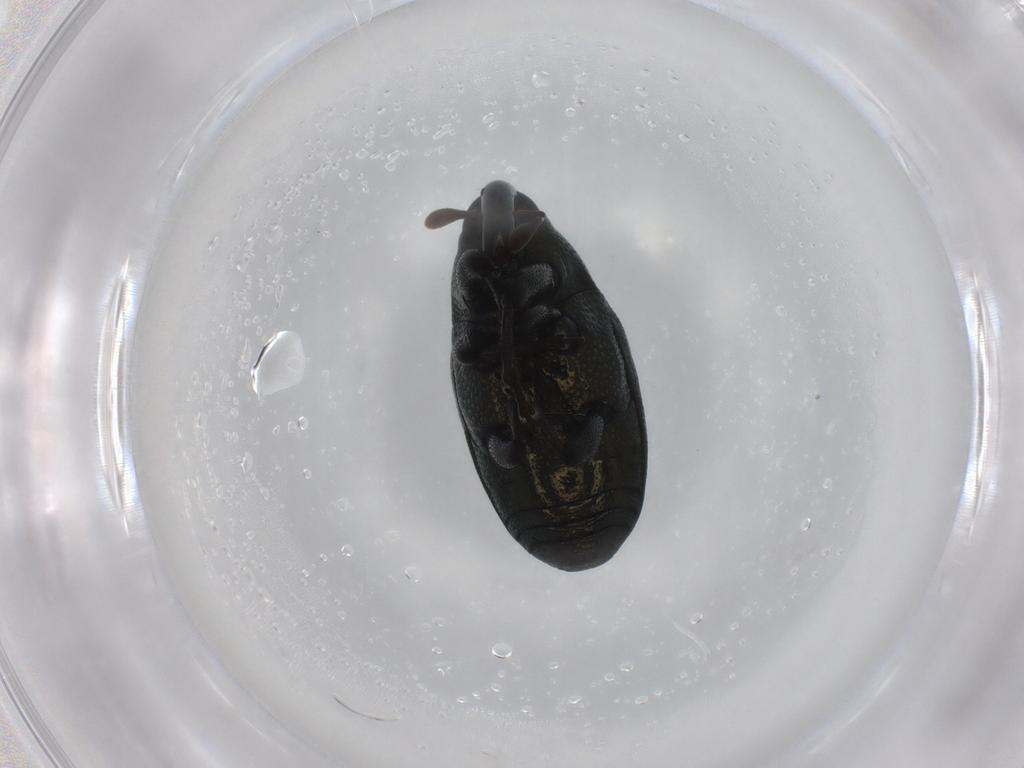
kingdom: Animalia
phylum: Arthropoda
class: Insecta
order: Coleoptera
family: Curculionidae
